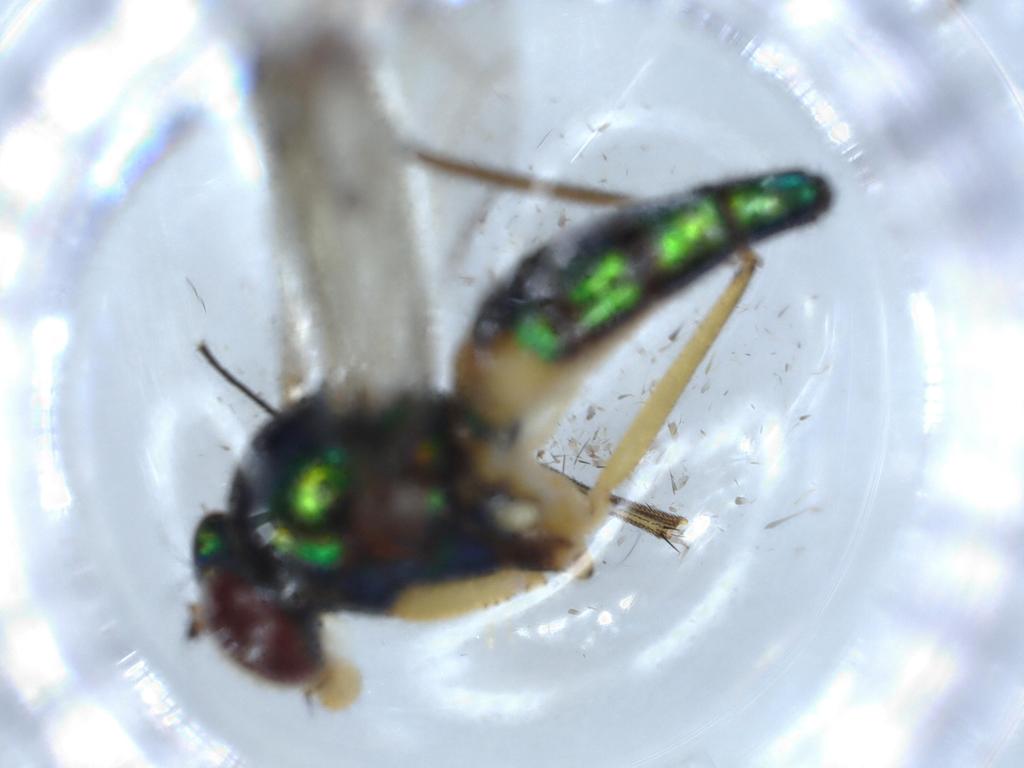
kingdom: Animalia
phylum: Arthropoda
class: Insecta
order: Diptera
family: Dolichopodidae
